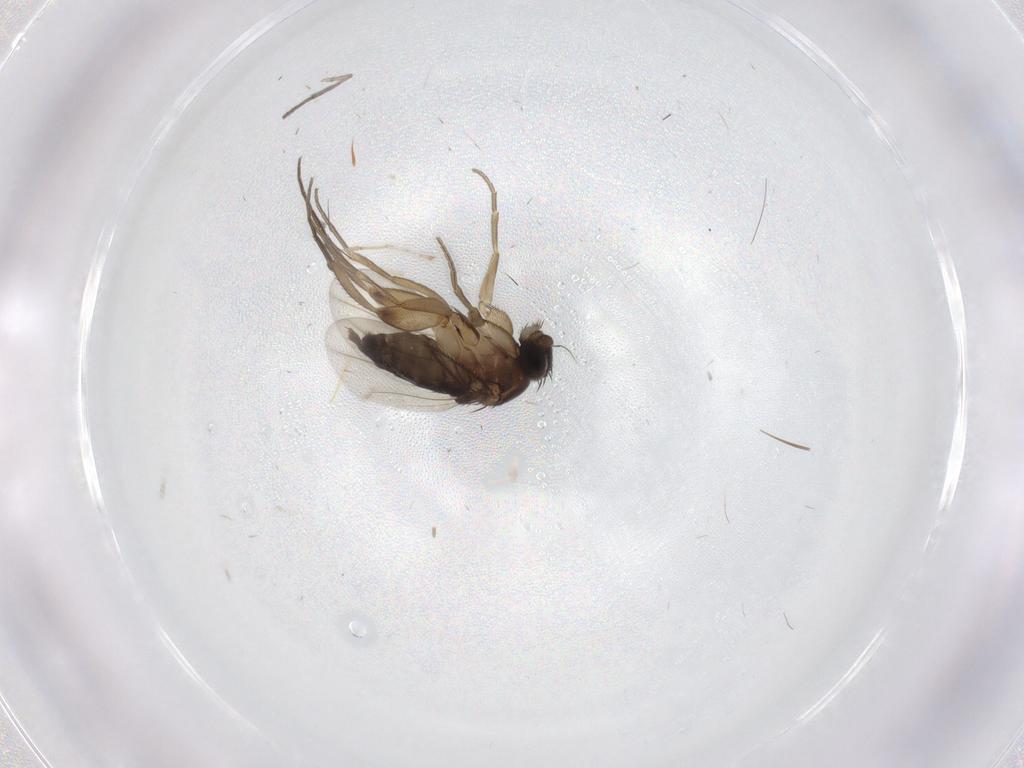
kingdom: Animalia
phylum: Arthropoda
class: Insecta
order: Diptera
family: Cecidomyiidae
